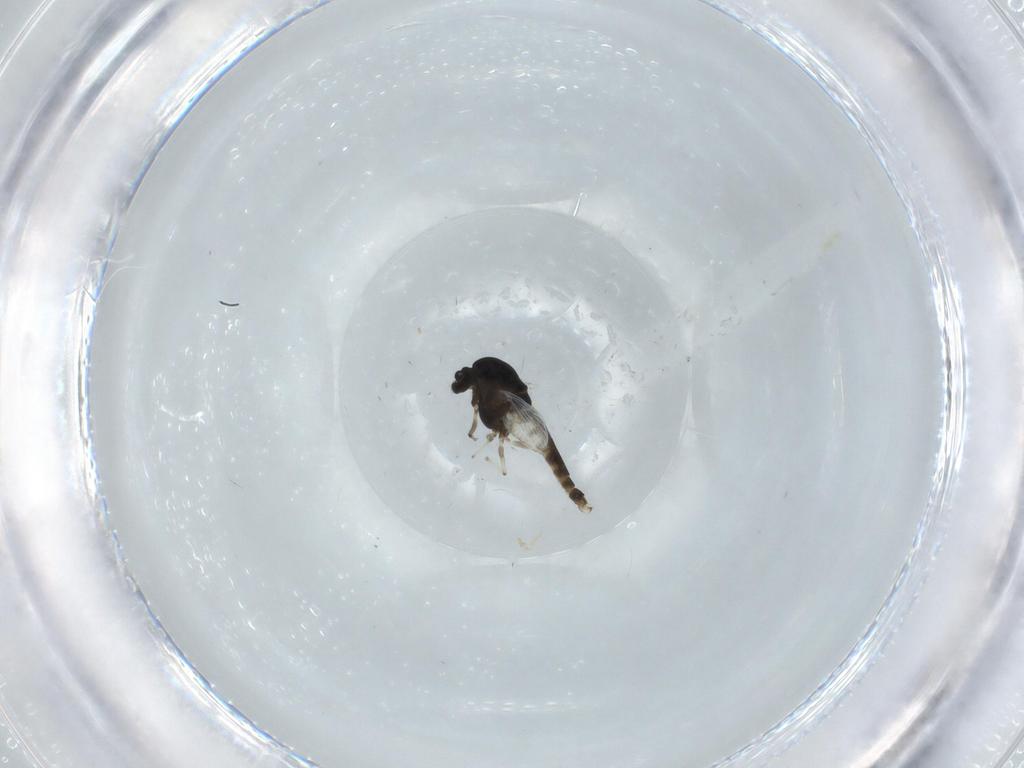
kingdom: Animalia
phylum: Arthropoda
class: Insecta
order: Diptera
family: Chironomidae
